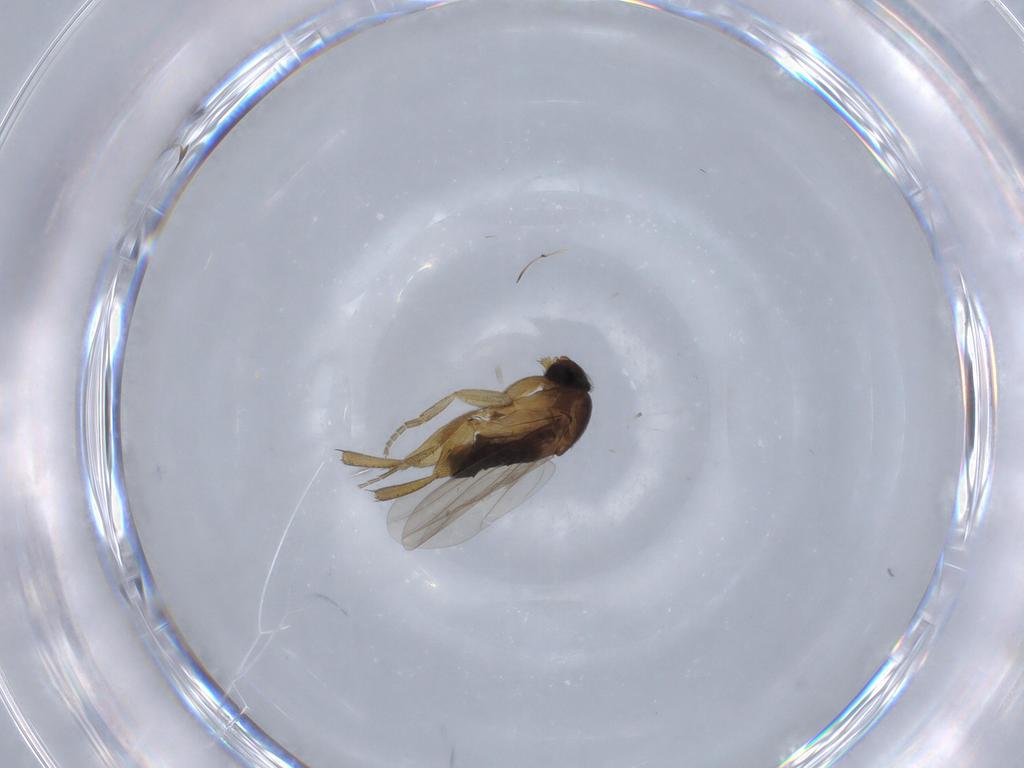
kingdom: Animalia
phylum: Arthropoda
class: Insecta
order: Diptera
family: Phoridae
